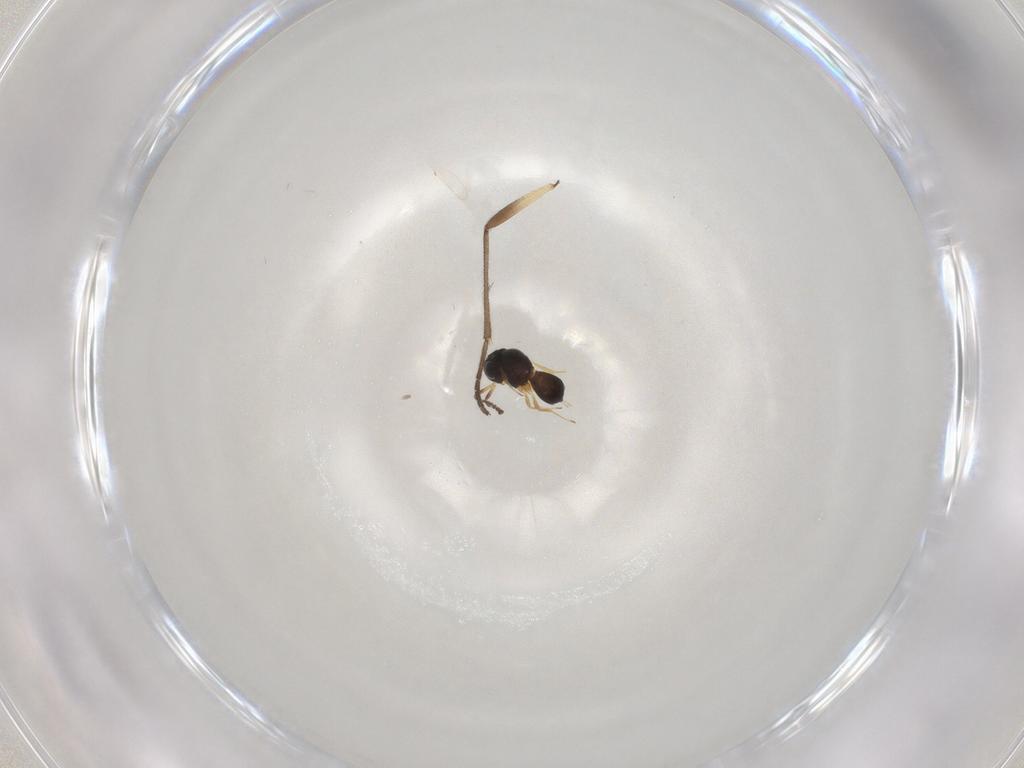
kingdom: Animalia
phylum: Arthropoda
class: Insecta
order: Hymenoptera
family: Scelionidae
